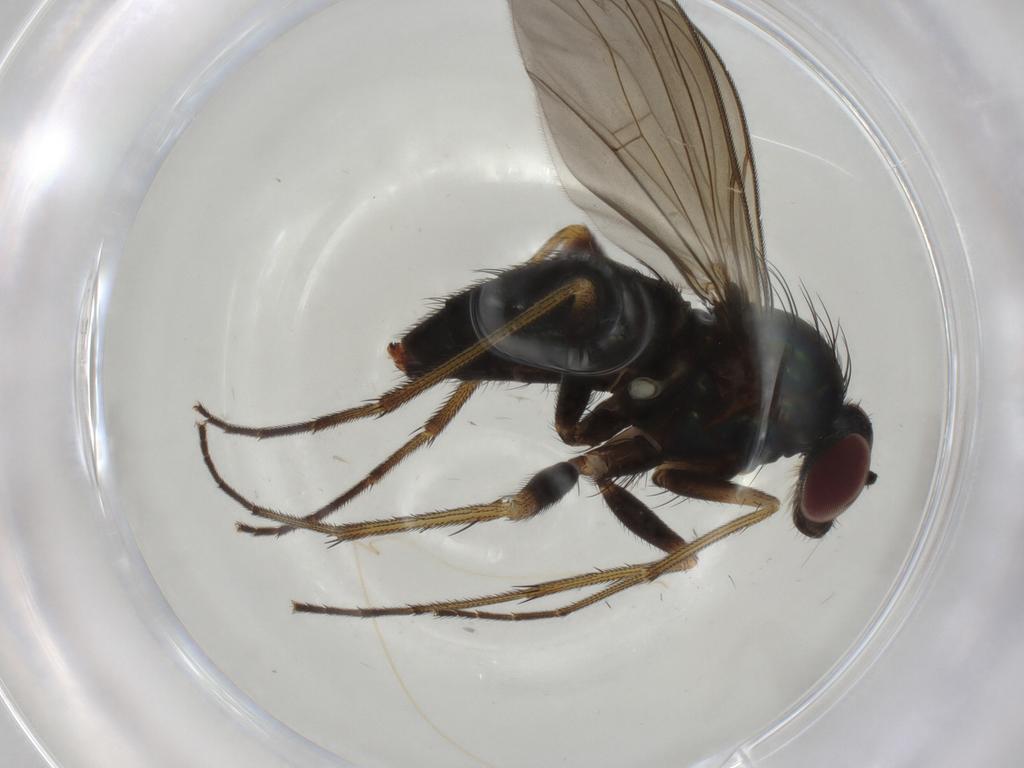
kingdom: Animalia
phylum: Arthropoda
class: Insecta
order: Diptera
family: Dolichopodidae
